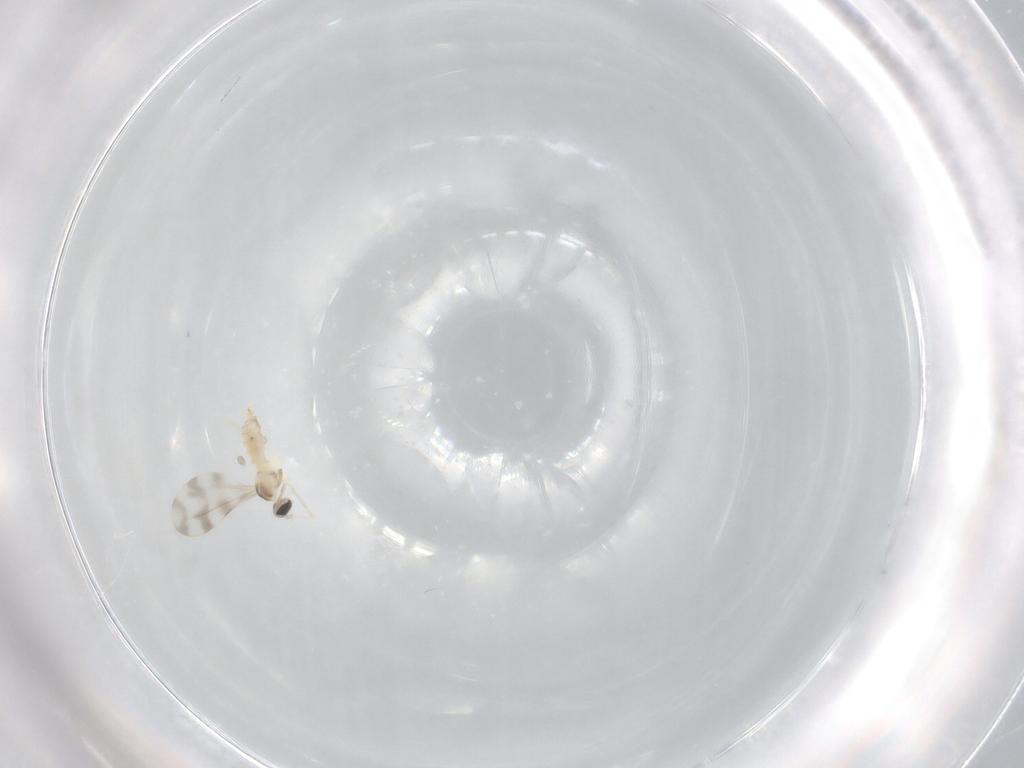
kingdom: Animalia
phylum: Arthropoda
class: Insecta
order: Diptera
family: Cecidomyiidae
